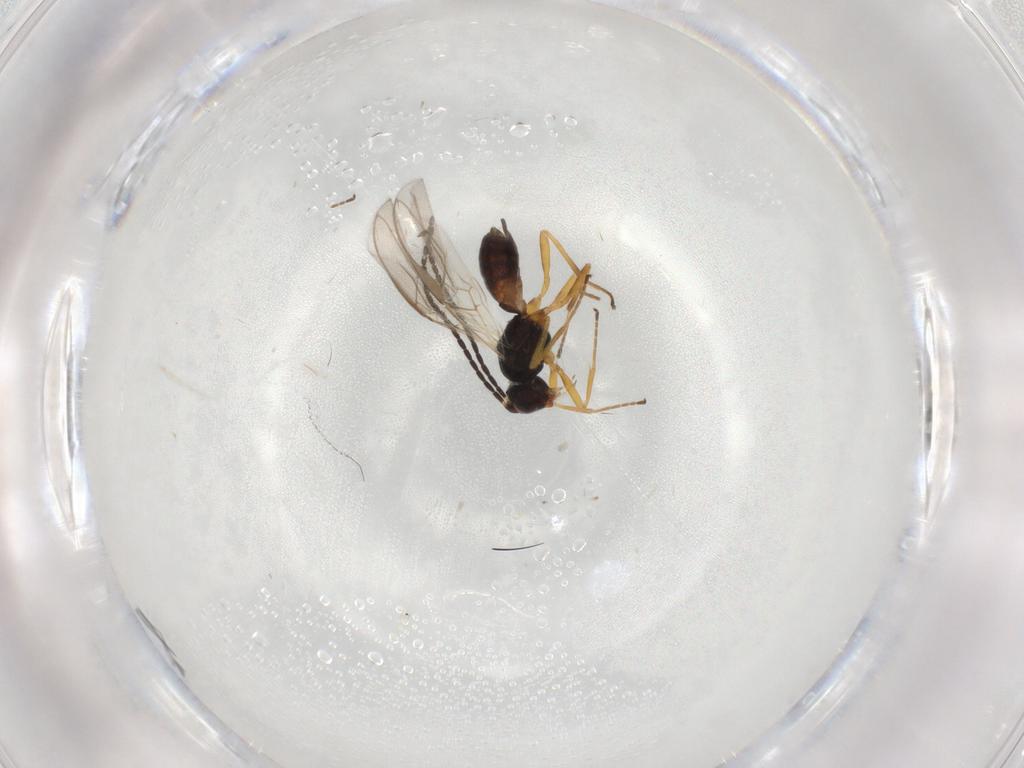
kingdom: Animalia
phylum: Arthropoda
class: Insecta
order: Hymenoptera
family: Braconidae
